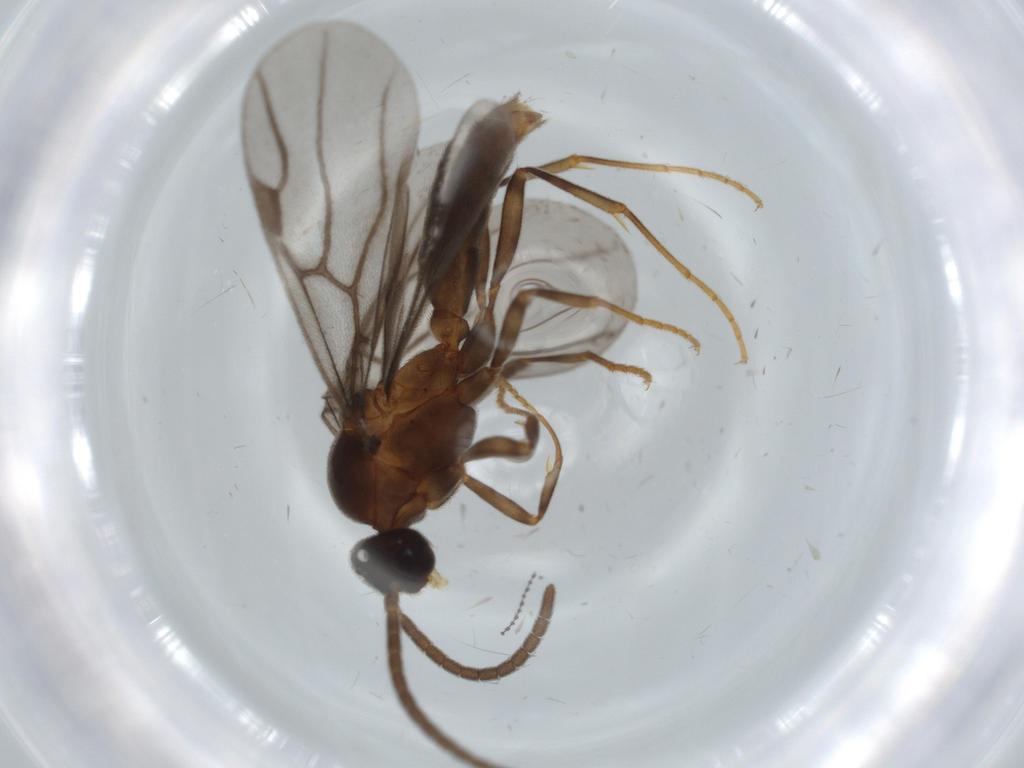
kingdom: Animalia
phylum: Arthropoda
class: Insecta
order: Hymenoptera
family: Formicidae
